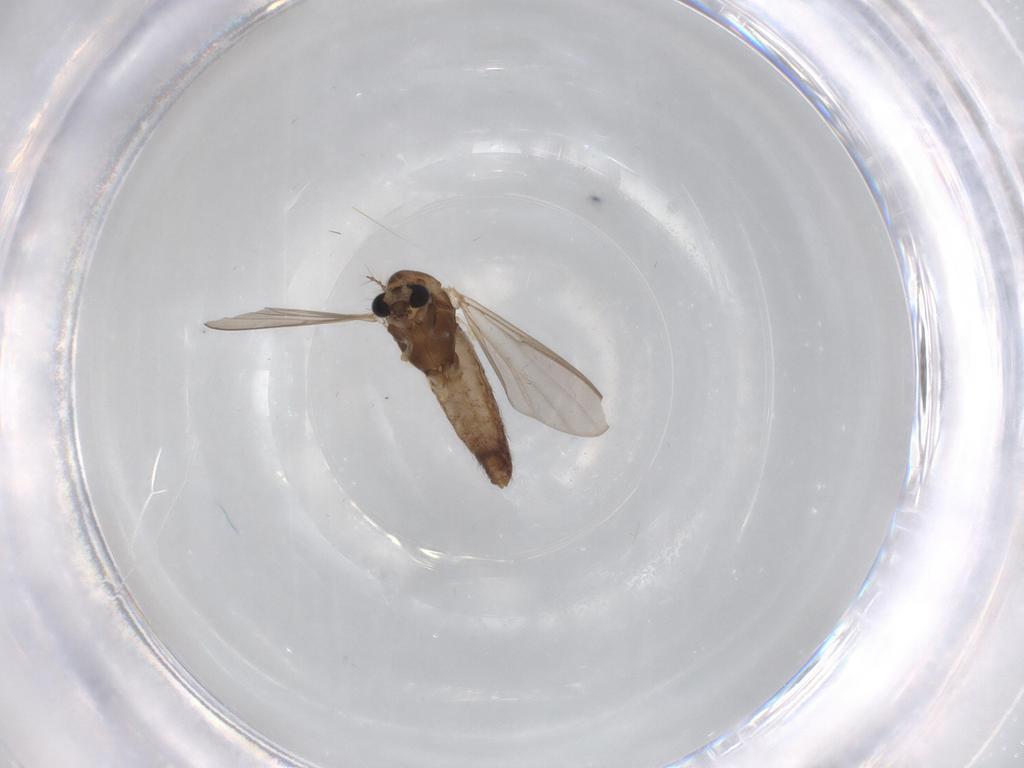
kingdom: Animalia
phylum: Arthropoda
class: Insecta
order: Diptera
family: Chironomidae
